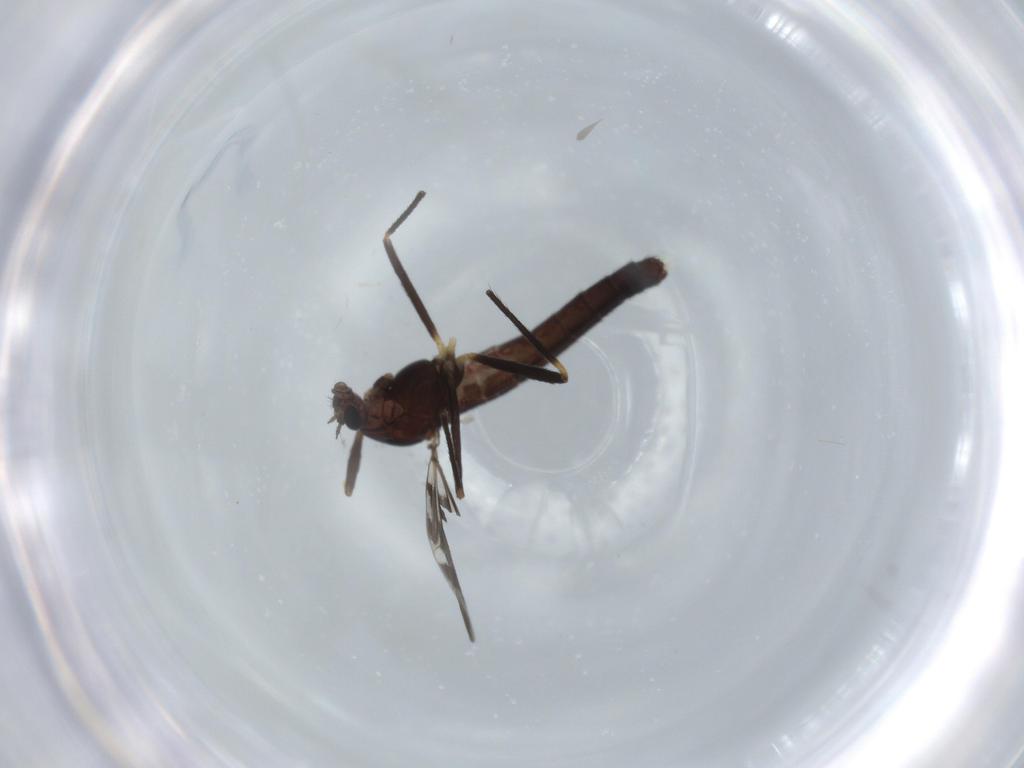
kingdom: Animalia
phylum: Arthropoda
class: Insecta
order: Diptera
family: Chironomidae
